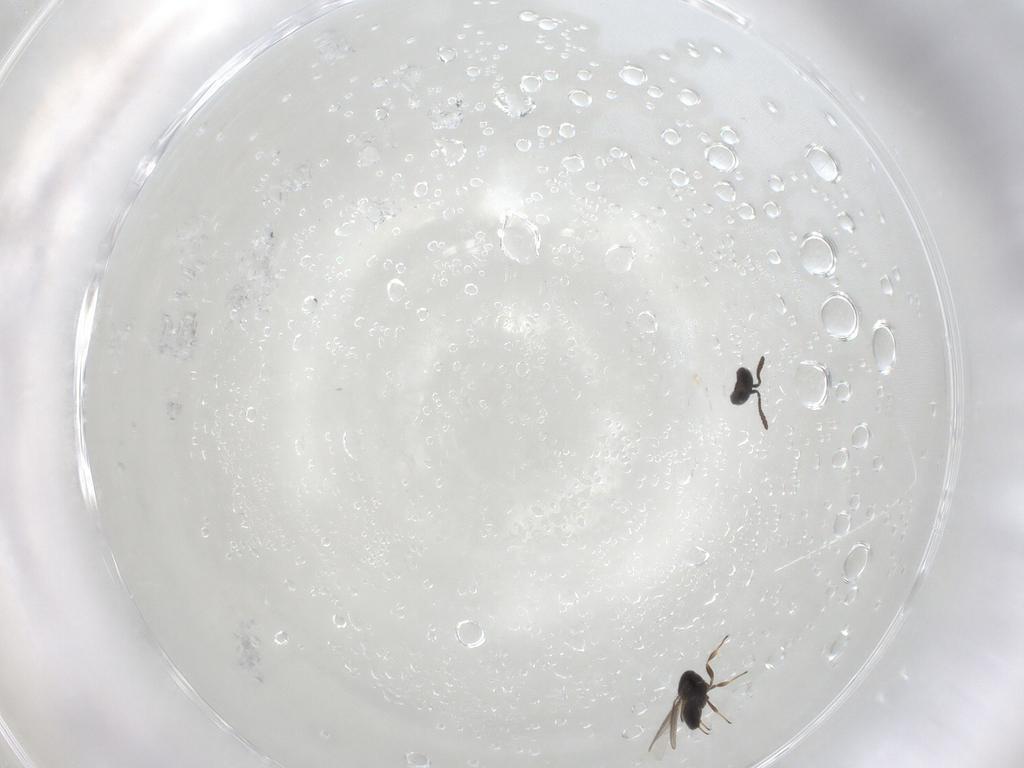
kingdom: Animalia
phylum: Arthropoda
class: Insecta
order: Hymenoptera
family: Scelionidae
